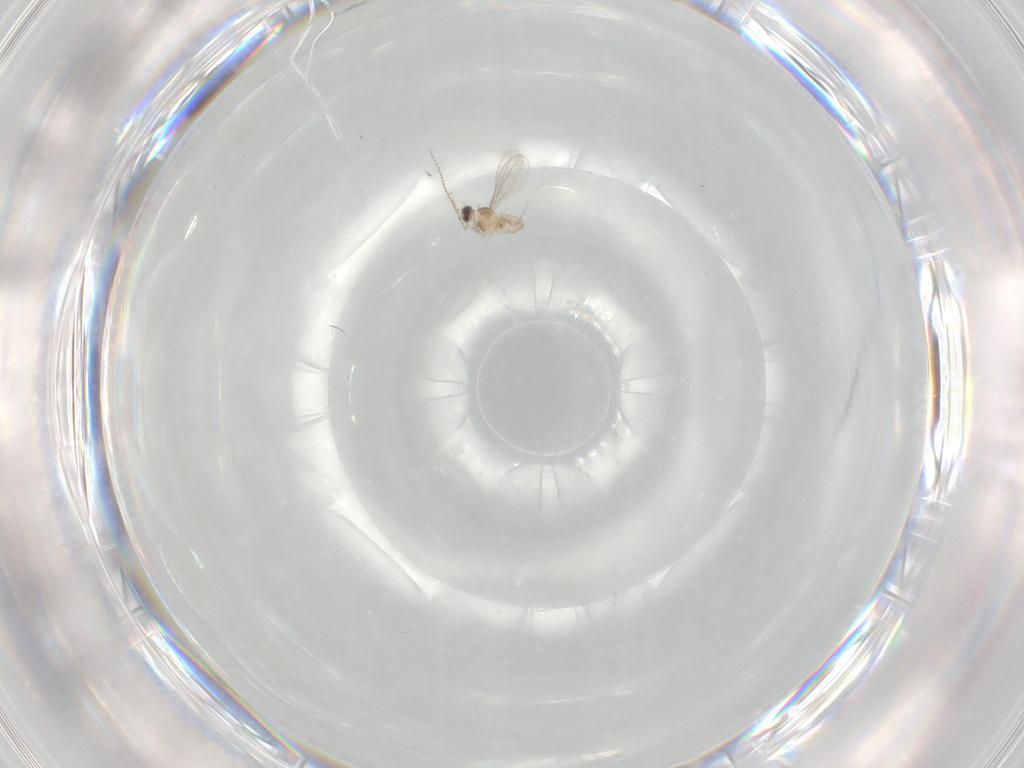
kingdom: Animalia
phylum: Arthropoda
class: Insecta
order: Diptera
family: Cecidomyiidae
